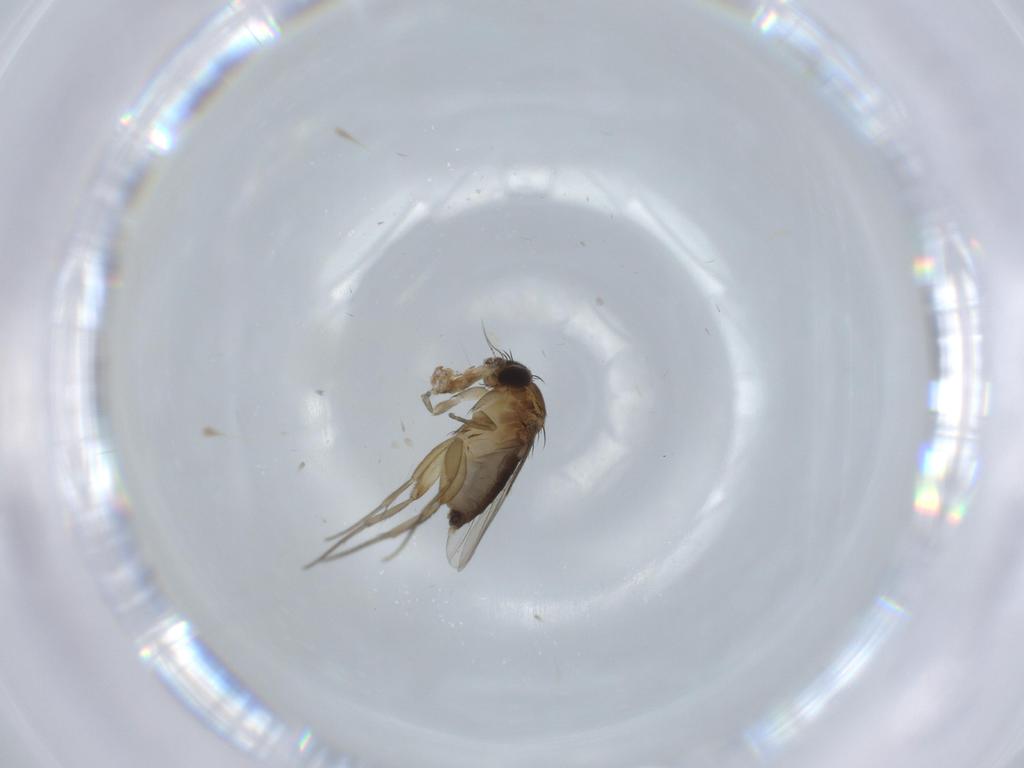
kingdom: Animalia
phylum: Arthropoda
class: Insecta
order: Diptera
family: Phoridae
